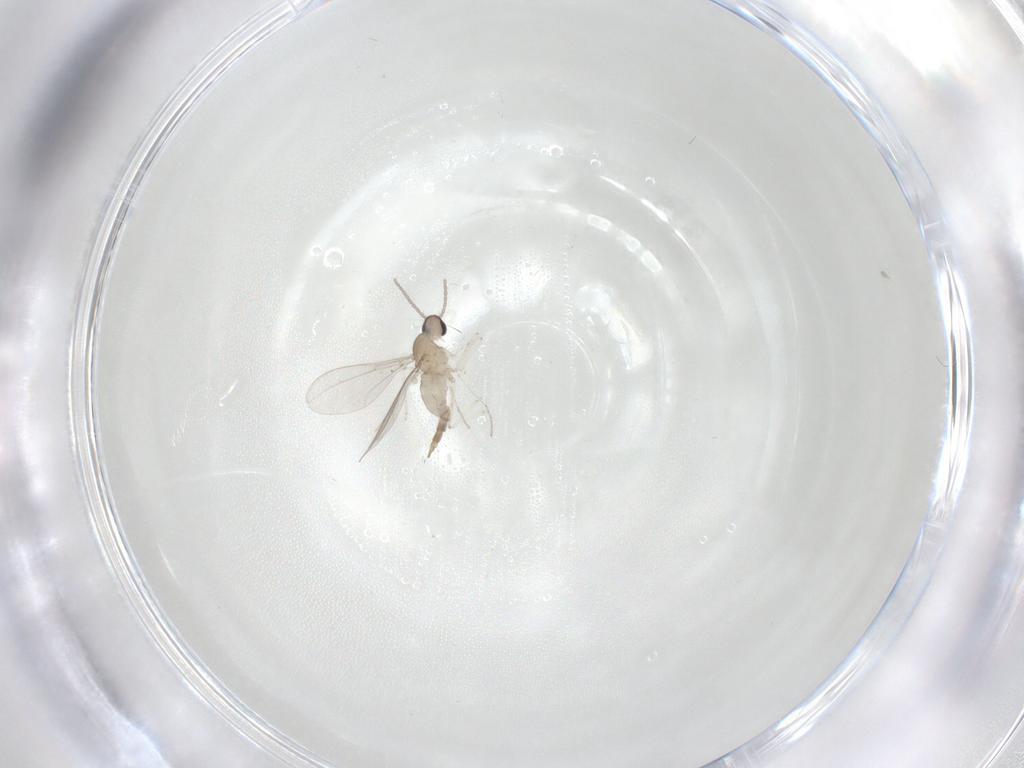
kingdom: Animalia
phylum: Arthropoda
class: Insecta
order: Diptera
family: Cecidomyiidae
